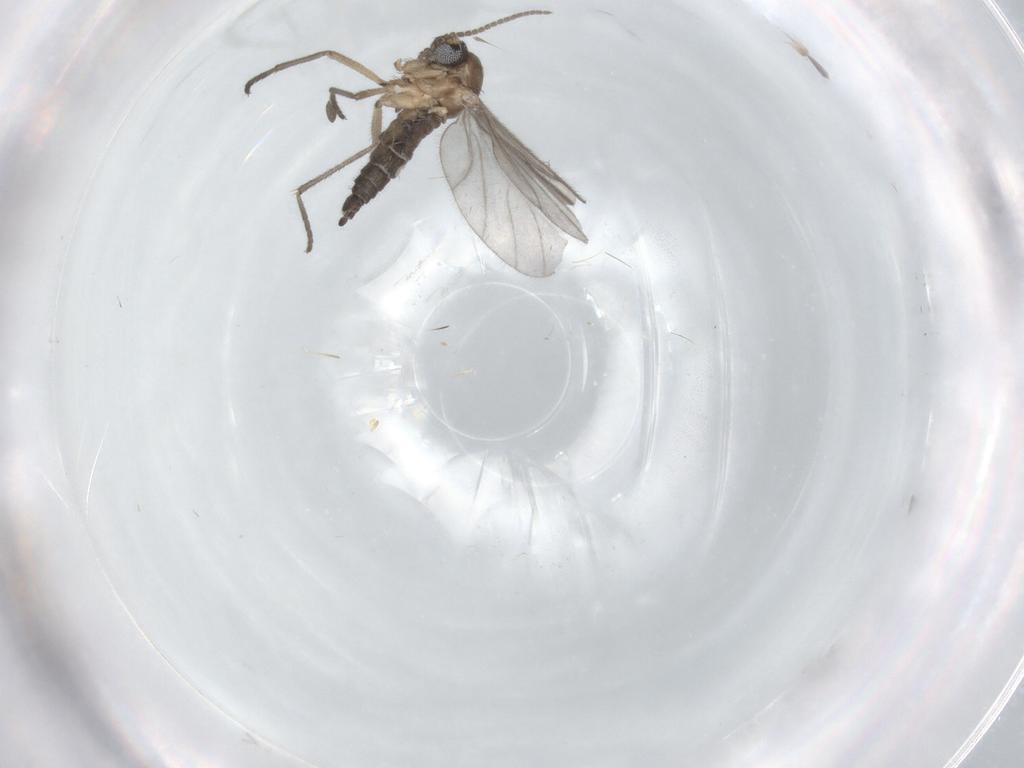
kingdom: Animalia
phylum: Arthropoda
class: Insecta
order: Diptera
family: Sciaridae
